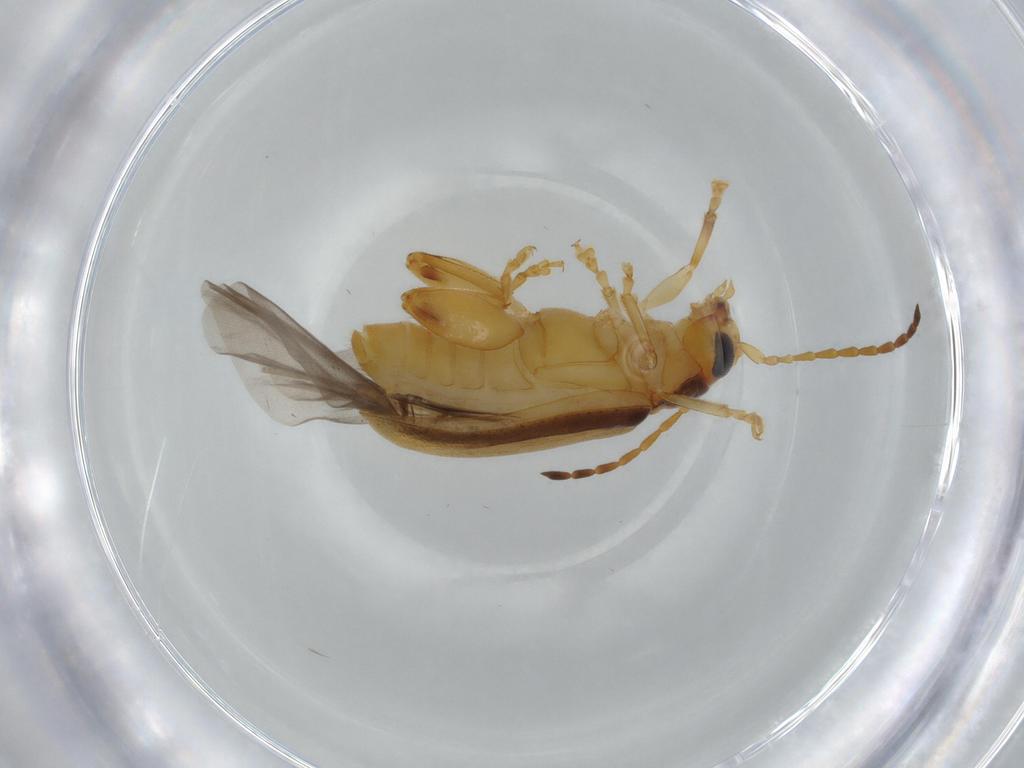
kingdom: Animalia
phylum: Arthropoda
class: Insecta
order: Coleoptera
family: Chrysomelidae
